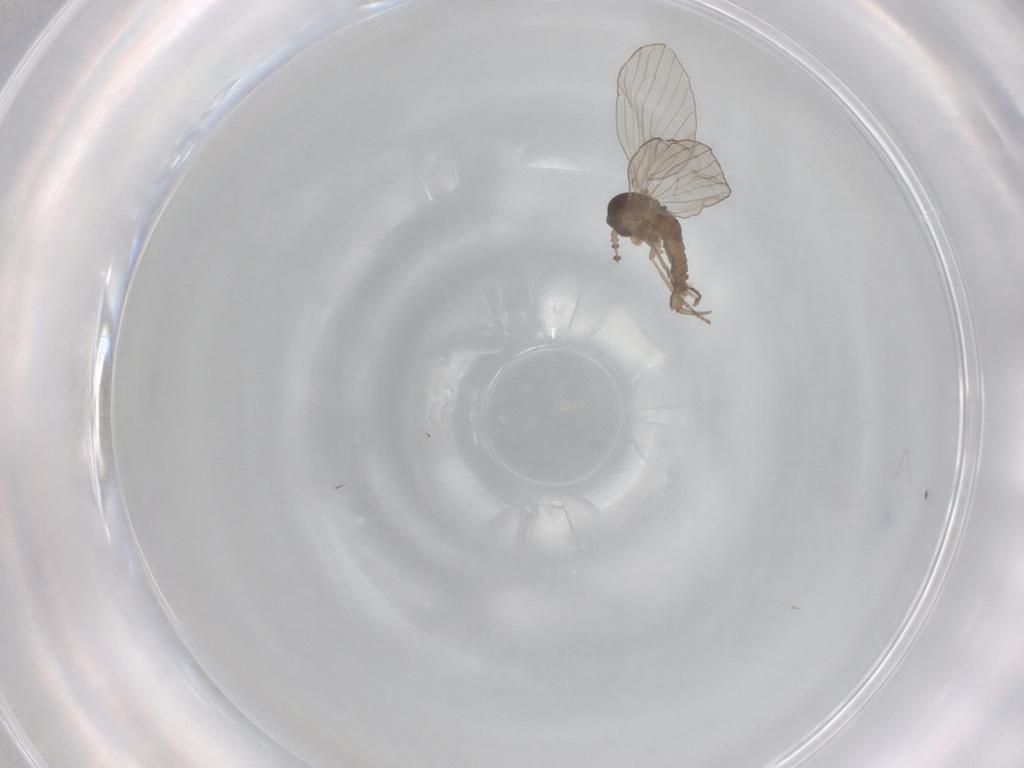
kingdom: Animalia
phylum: Arthropoda
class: Insecta
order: Diptera
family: Psychodidae
